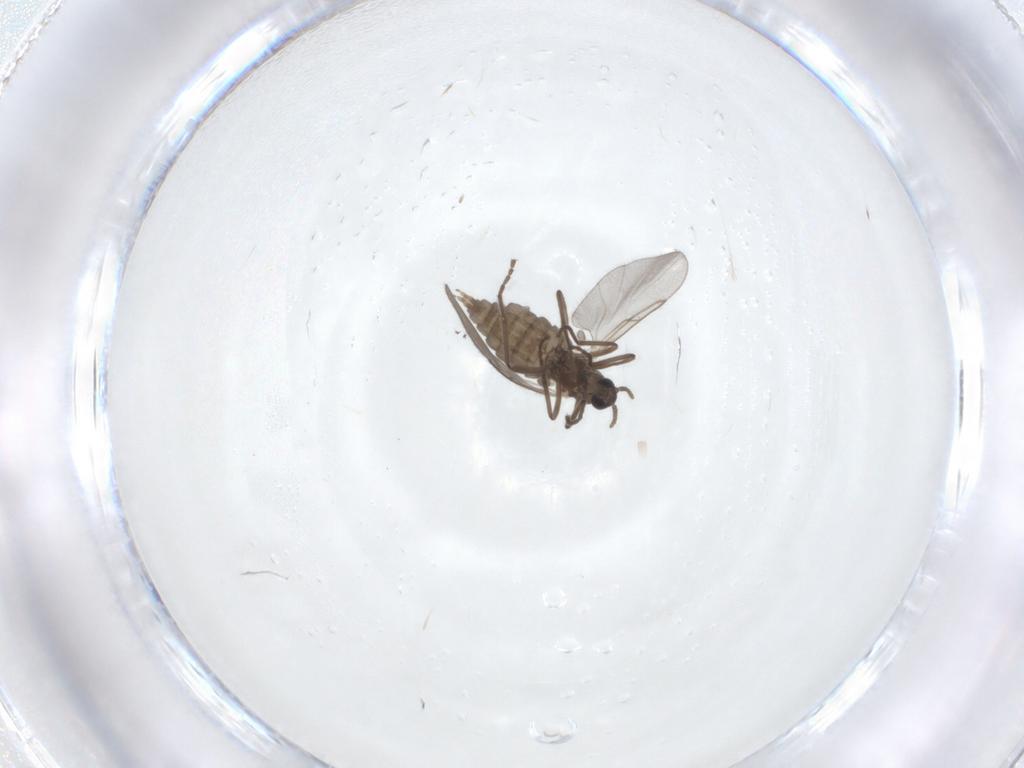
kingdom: Animalia
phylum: Arthropoda
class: Insecta
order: Diptera
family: Cecidomyiidae
